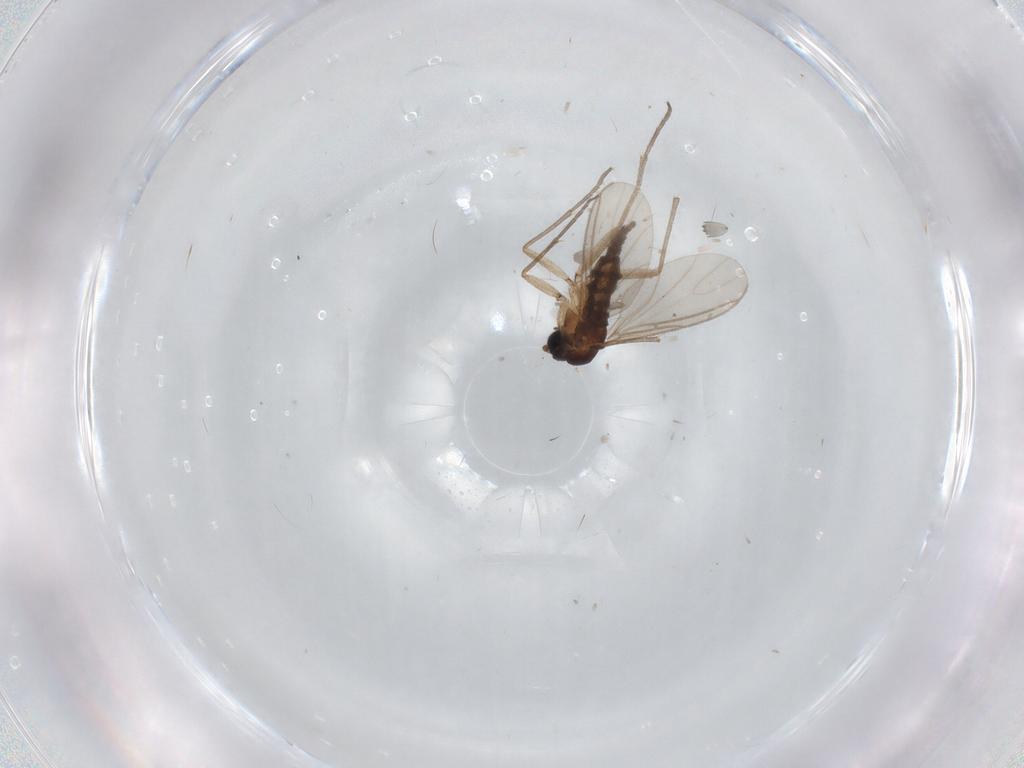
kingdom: Animalia
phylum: Arthropoda
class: Insecta
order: Diptera
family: Sciaridae
